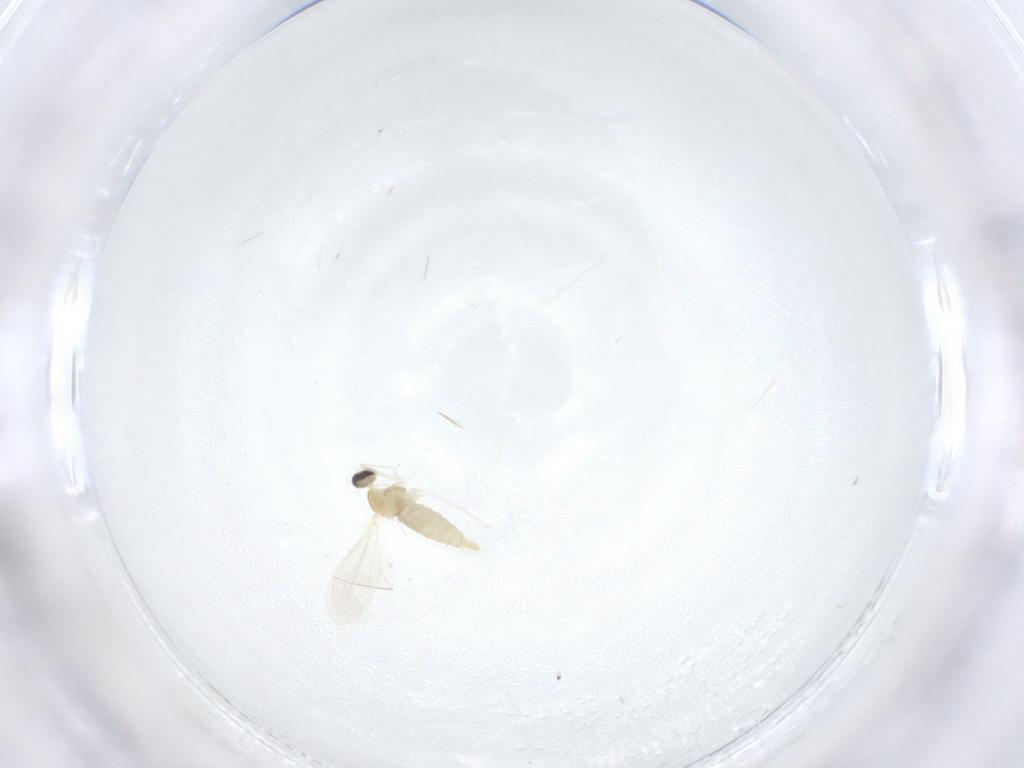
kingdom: Animalia
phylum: Arthropoda
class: Insecta
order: Diptera
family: Cecidomyiidae
